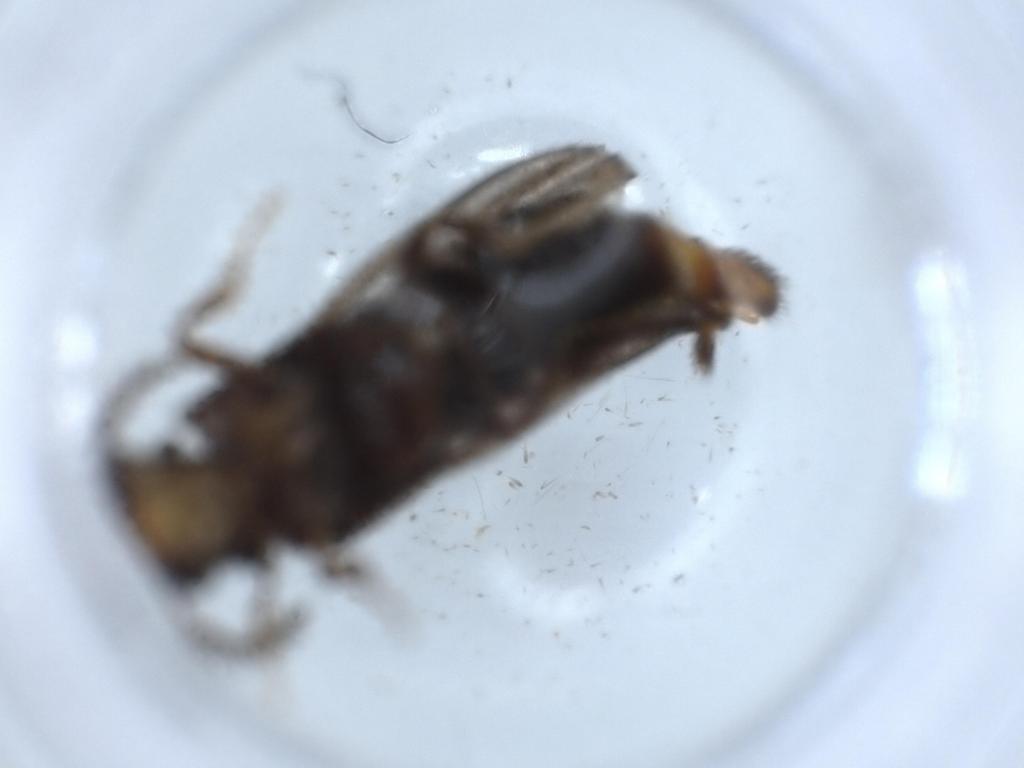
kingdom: Animalia
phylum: Arthropoda
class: Insecta
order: Coleoptera
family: Phengodidae
